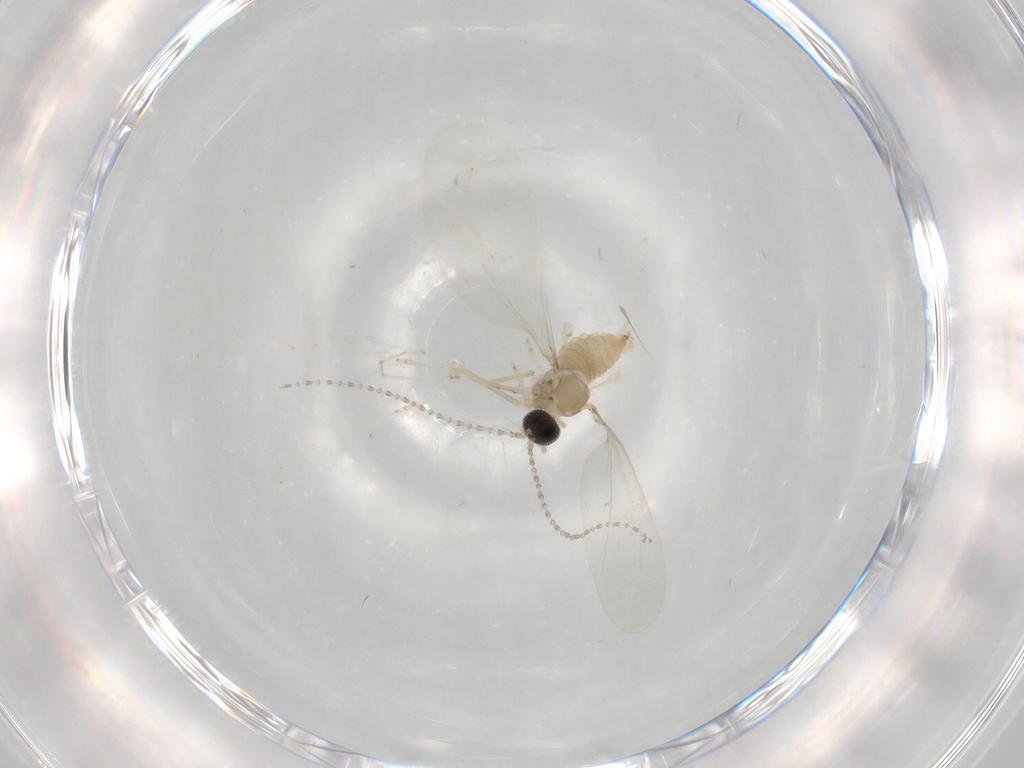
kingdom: Animalia
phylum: Arthropoda
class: Insecta
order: Diptera
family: Cecidomyiidae
